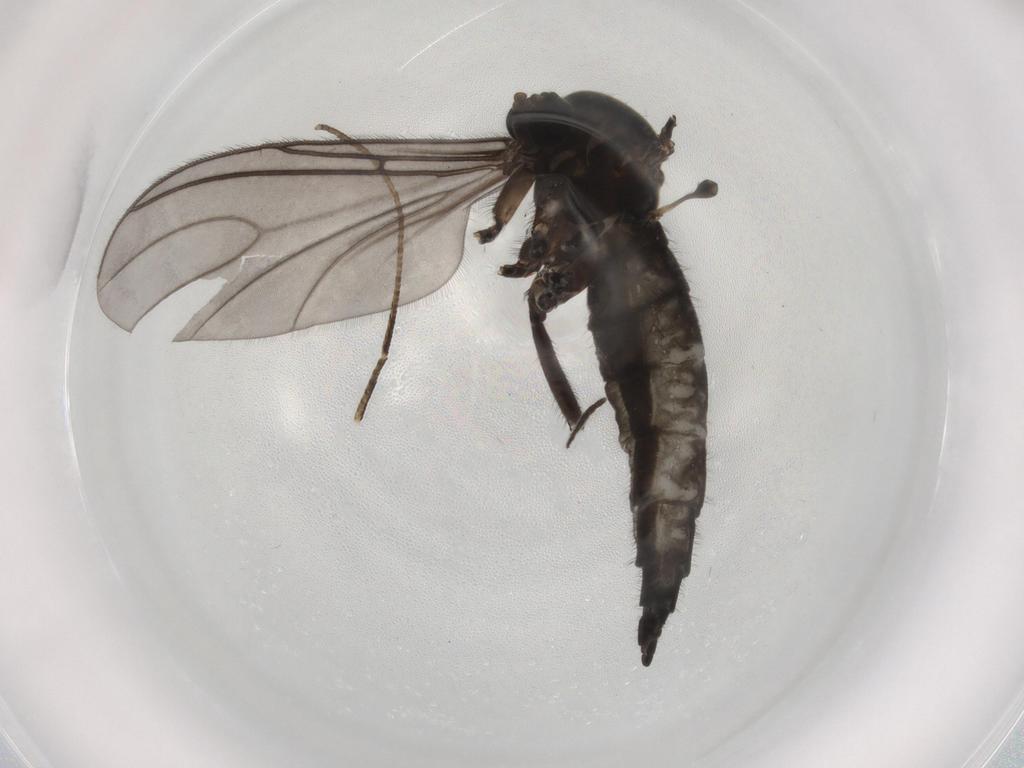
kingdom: Animalia
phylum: Arthropoda
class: Insecta
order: Diptera
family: Sciaridae
